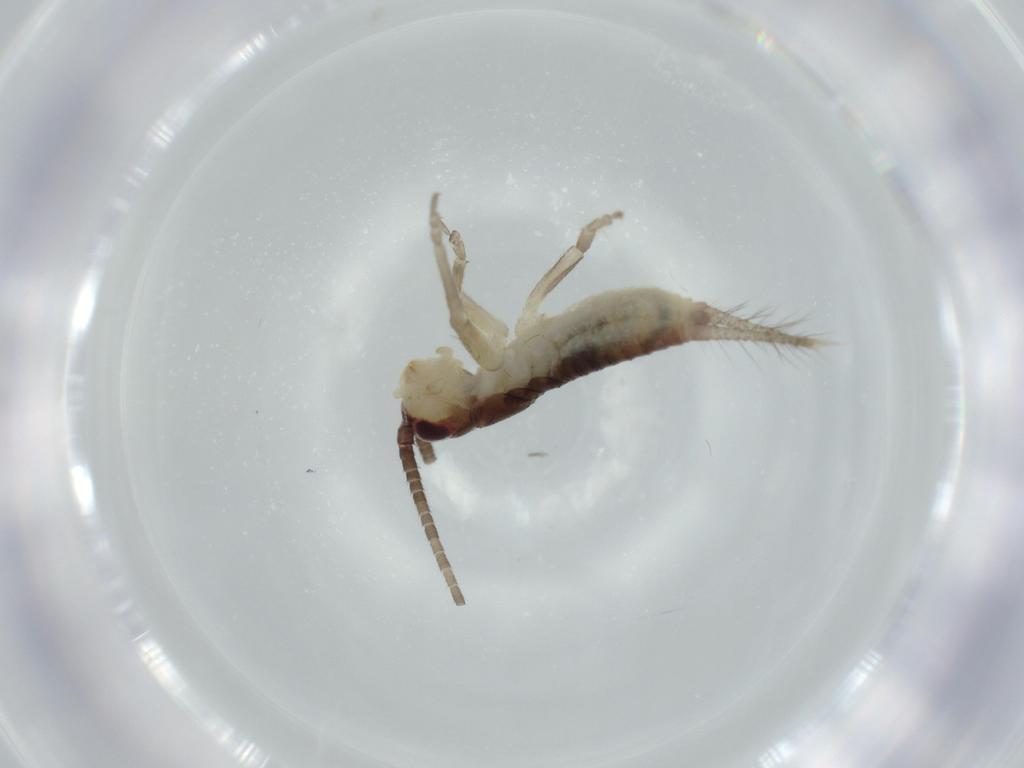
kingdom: Animalia
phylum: Arthropoda
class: Insecta
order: Orthoptera
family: Gryllidae
